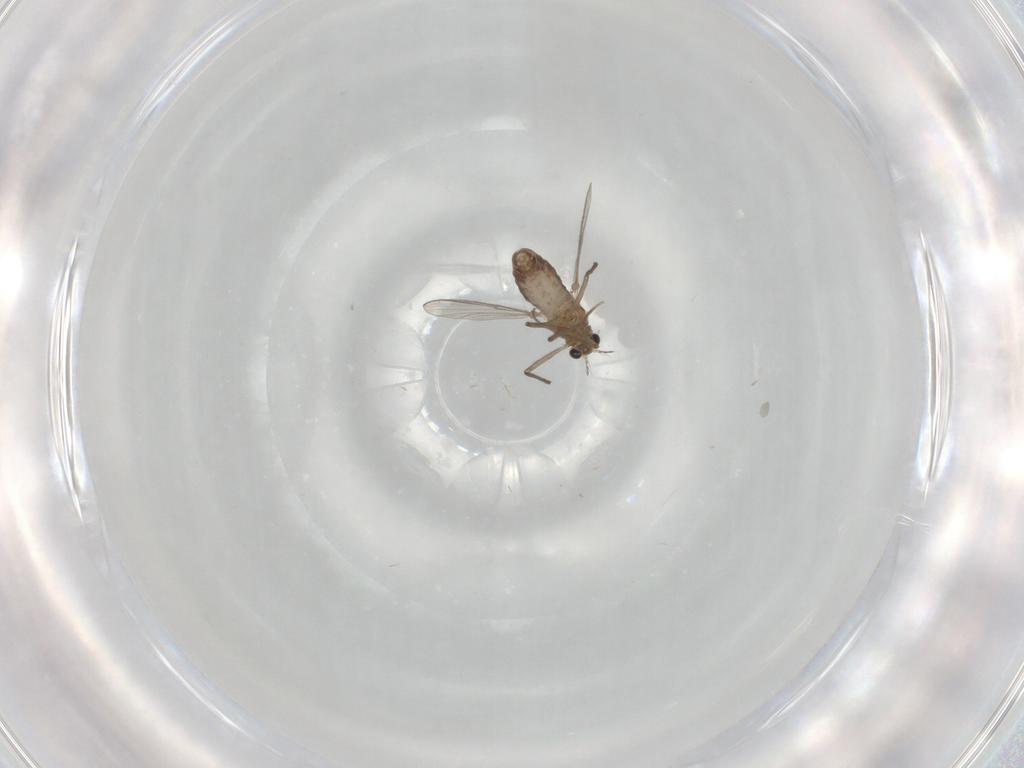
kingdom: Animalia
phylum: Arthropoda
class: Insecta
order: Diptera
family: Chironomidae
